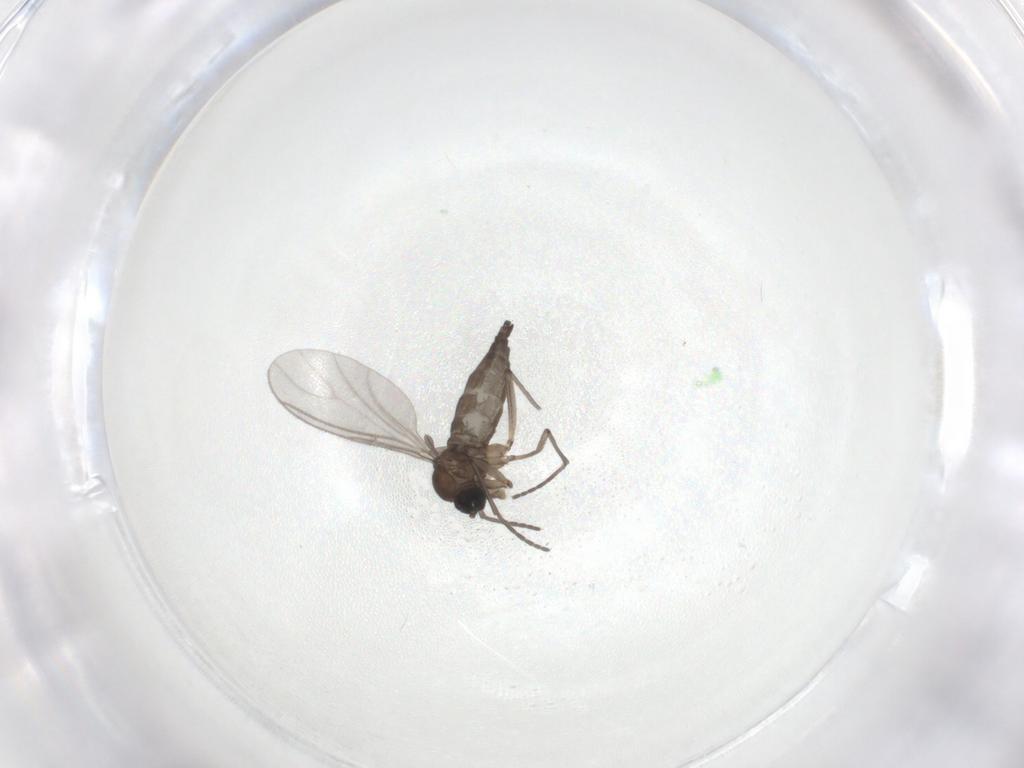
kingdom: Animalia
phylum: Arthropoda
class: Insecta
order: Diptera
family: Sciaridae
